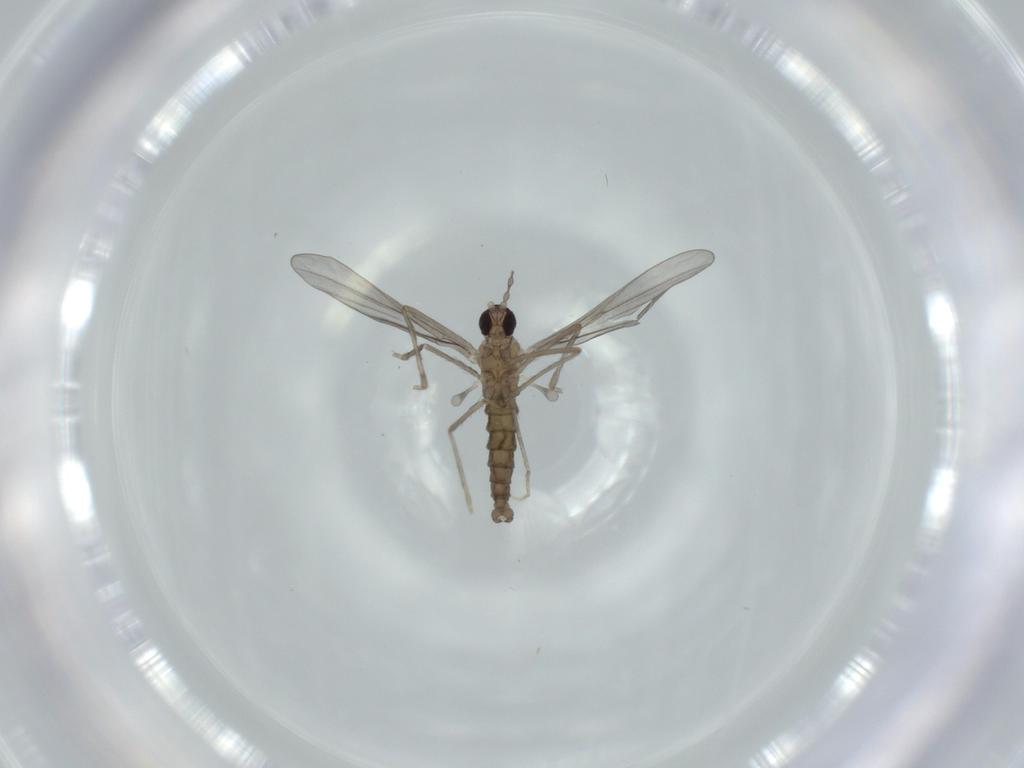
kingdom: Animalia
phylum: Arthropoda
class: Insecta
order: Diptera
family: Cecidomyiidae
